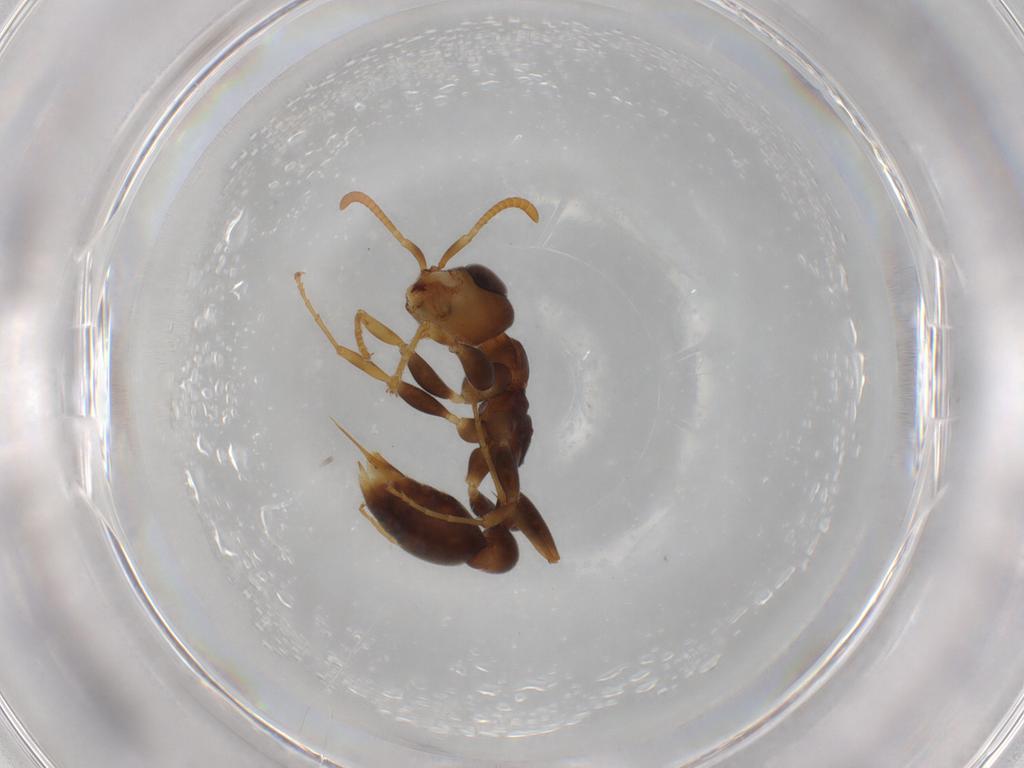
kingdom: Animalia
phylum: Arthropoda
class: Insecta
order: Hymenoptera
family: Formicidae
